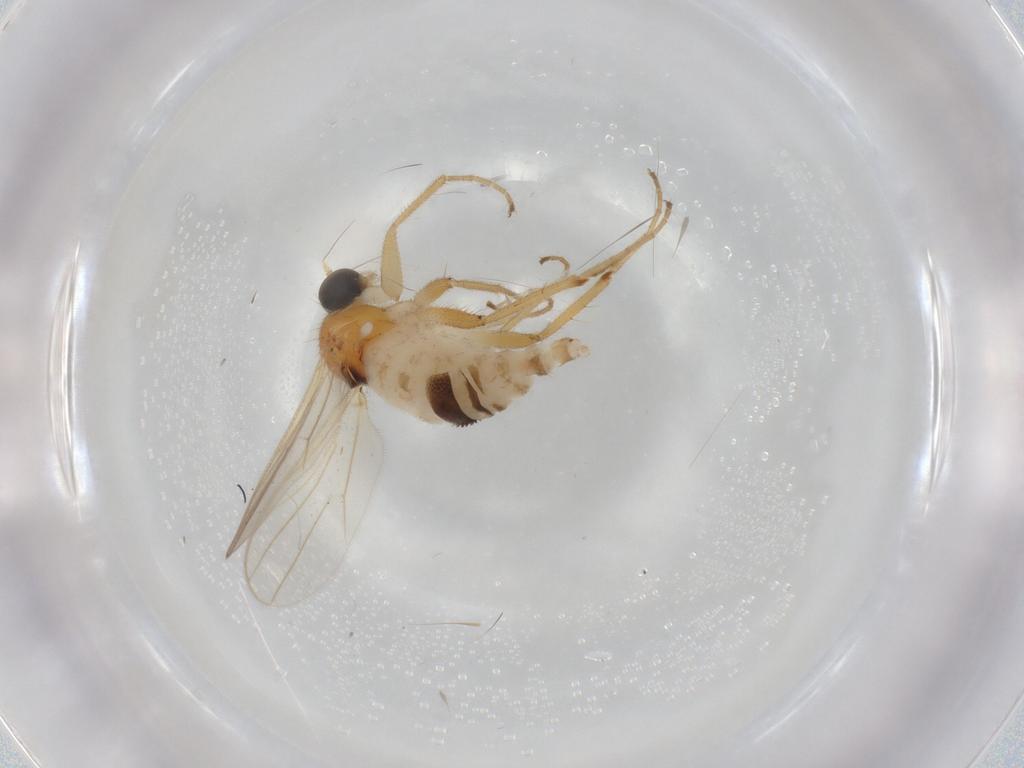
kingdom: Animalia
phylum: Arthropoda
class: Insecta
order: Diptera
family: Hybotidae
